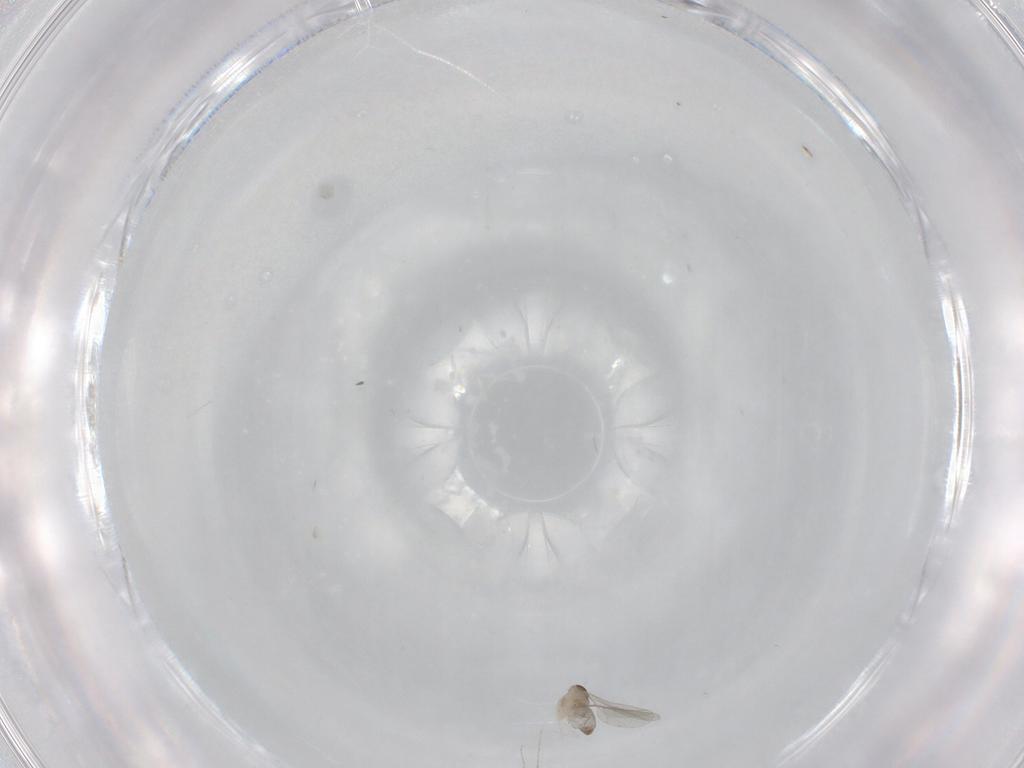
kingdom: Animalia
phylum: Arthropoda
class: Insecta
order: Diptera
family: Cecidomyiidae
